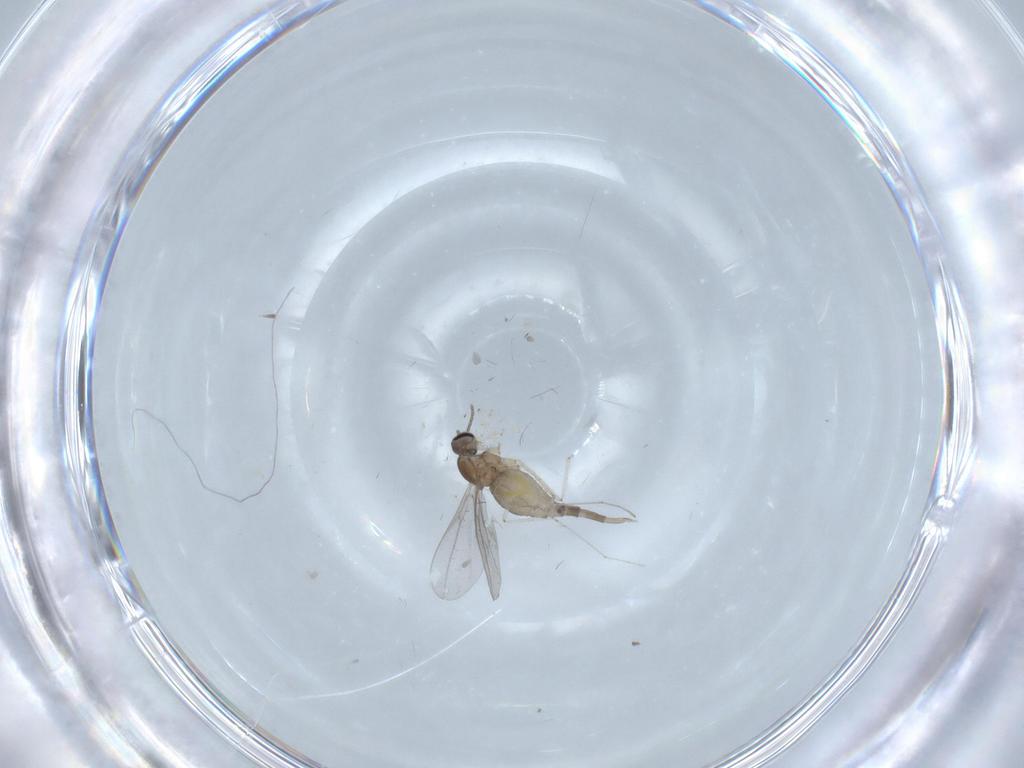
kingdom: Animalia
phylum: Arthropoda
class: Insecta
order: Diptera
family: Cecidomyiidae
